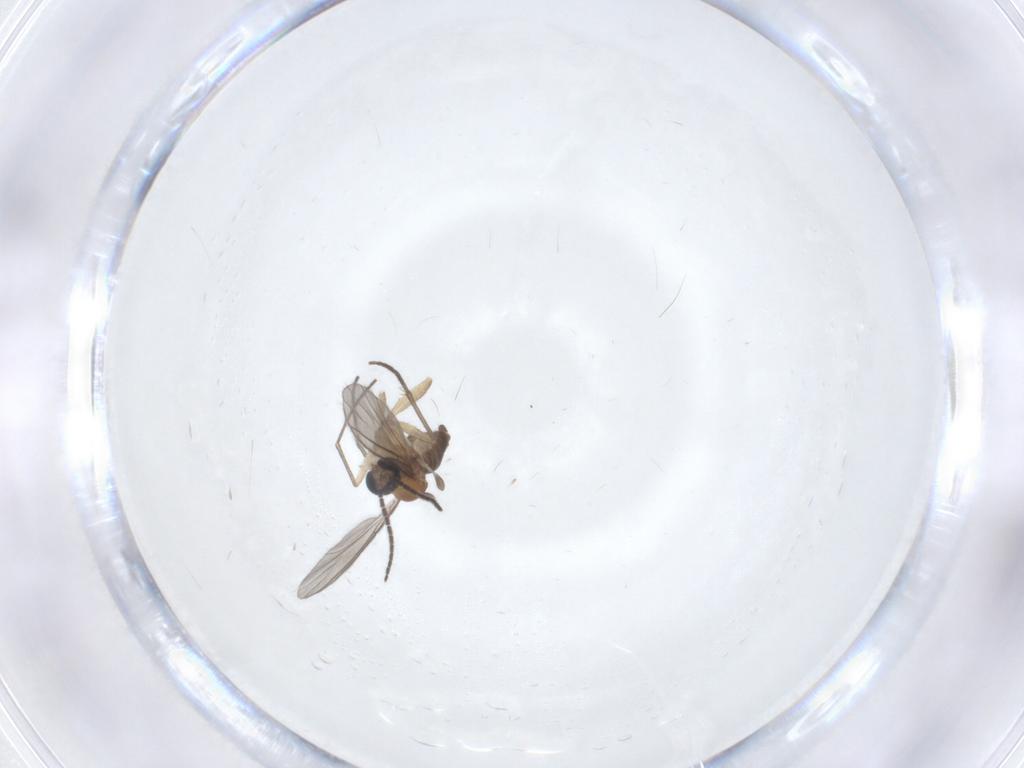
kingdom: Animalia
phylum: Arthropoda
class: Insecta
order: Diptera
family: Sciaridae
